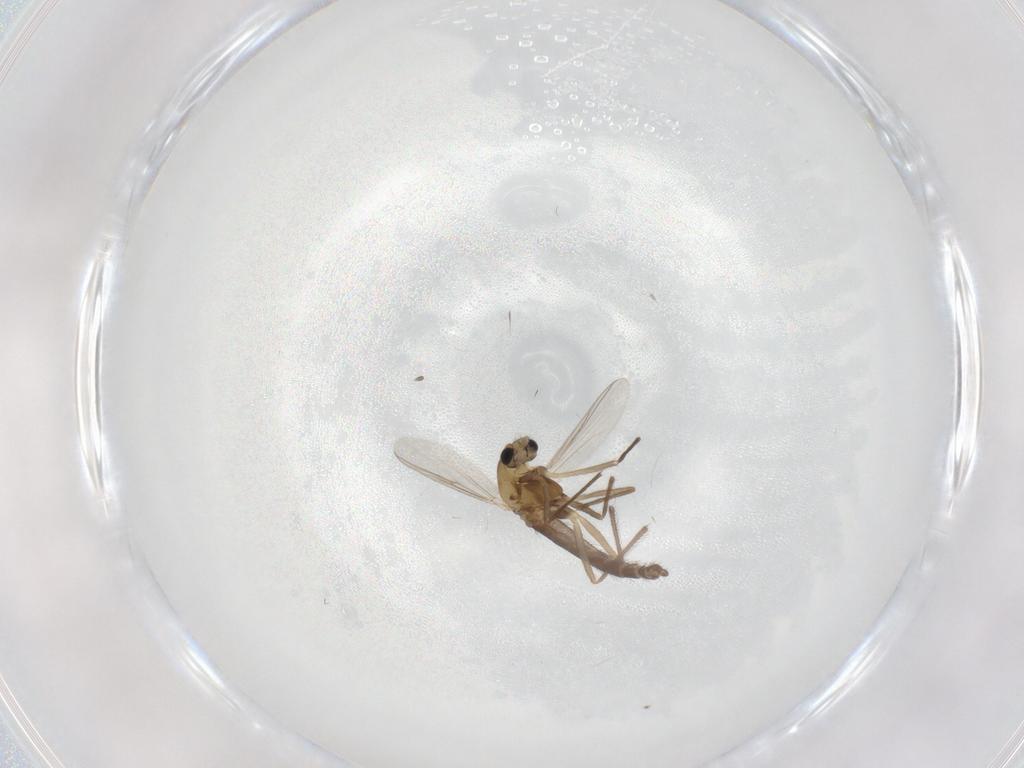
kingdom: Animalia
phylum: Arthropoda
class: Insecta
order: Diptera
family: Chironomidae
